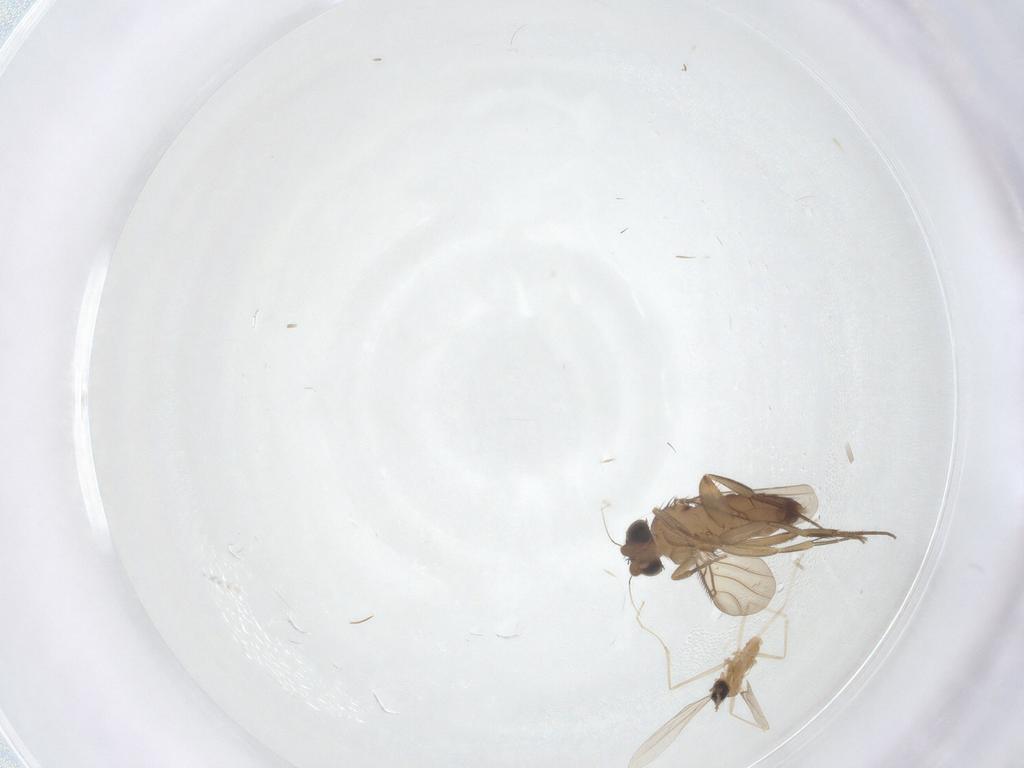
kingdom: Animalia
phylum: Arthropoda
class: Insecta
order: Diptera
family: Cecidomyiidae
